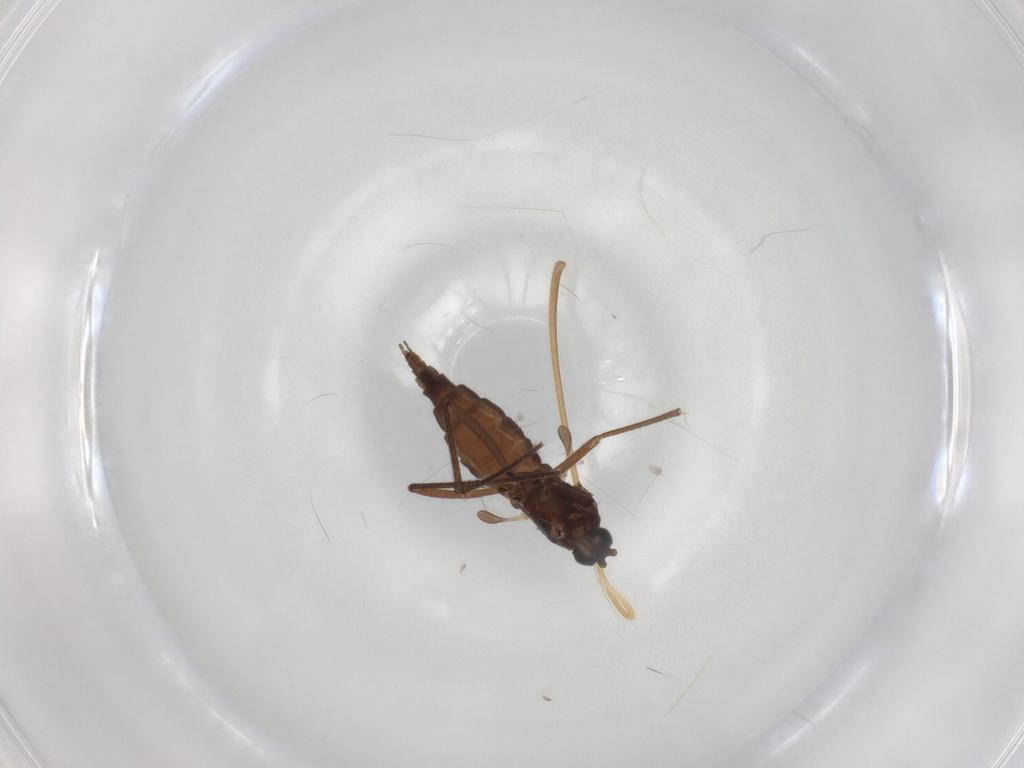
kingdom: Animalia
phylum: Arthropoda
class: Insecta
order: Diptera
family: Sciaridae
